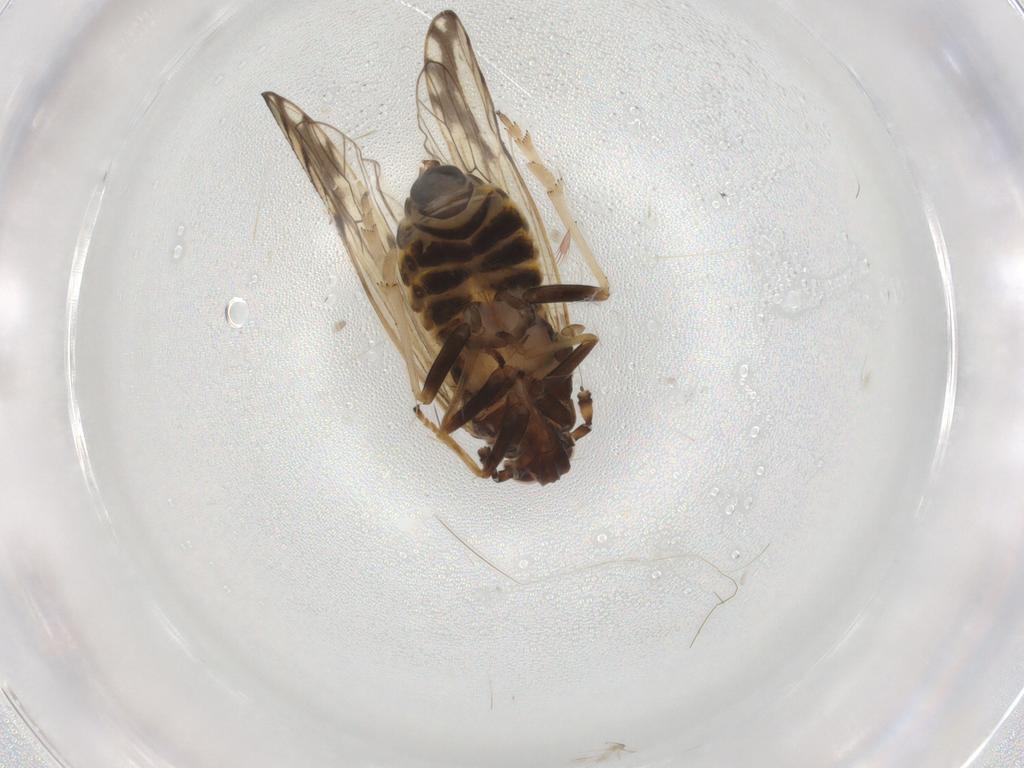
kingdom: Animalia
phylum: Arthropoda
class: Insecta
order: Hemiptera
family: Delphacidae
